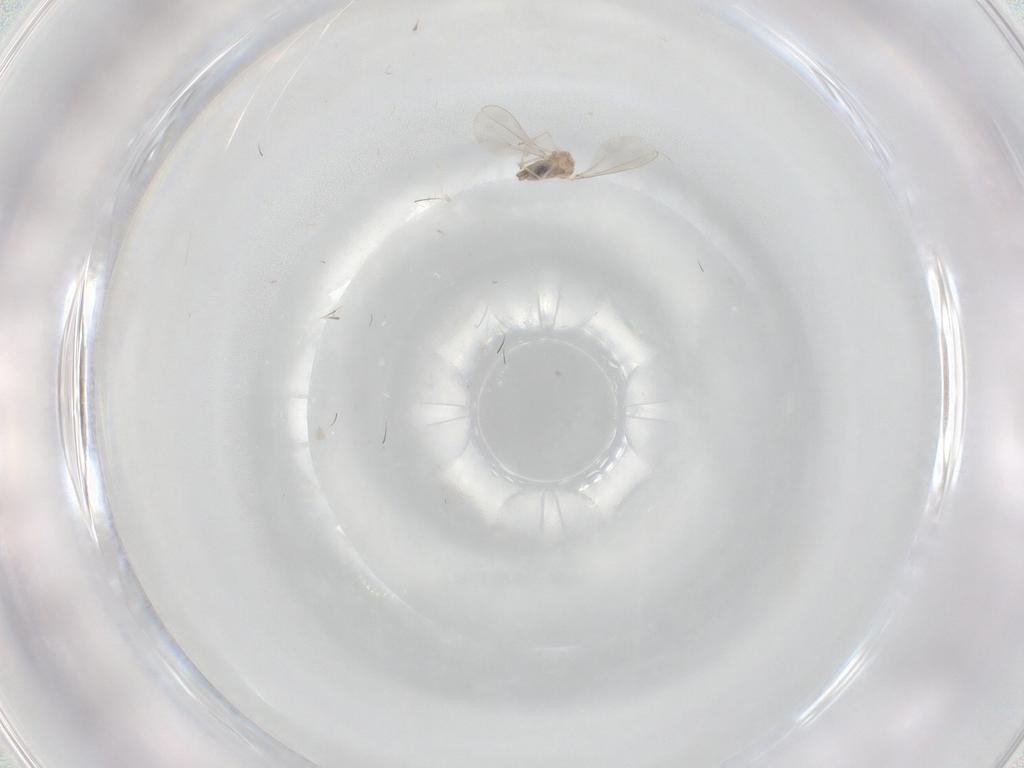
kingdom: Animalia
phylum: Arthropoda
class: Insecta
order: Diptera
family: Cecidomyiidae
